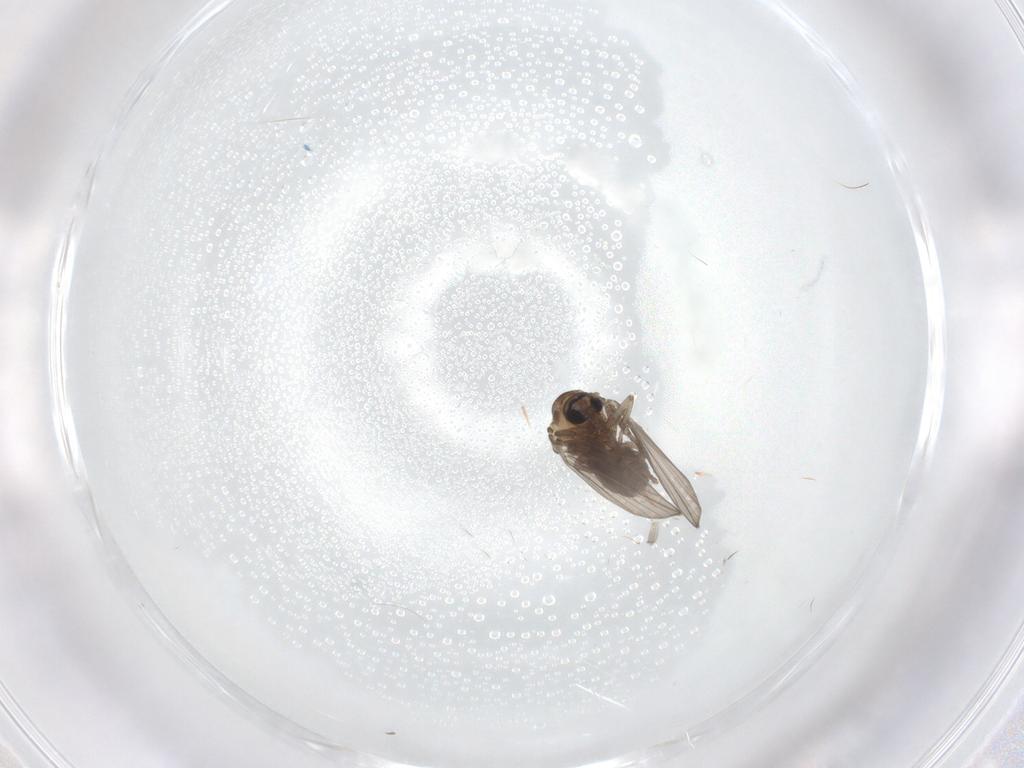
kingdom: Animalia
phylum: Arthropoda
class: Insecta
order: Diptera
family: Psychodidae
